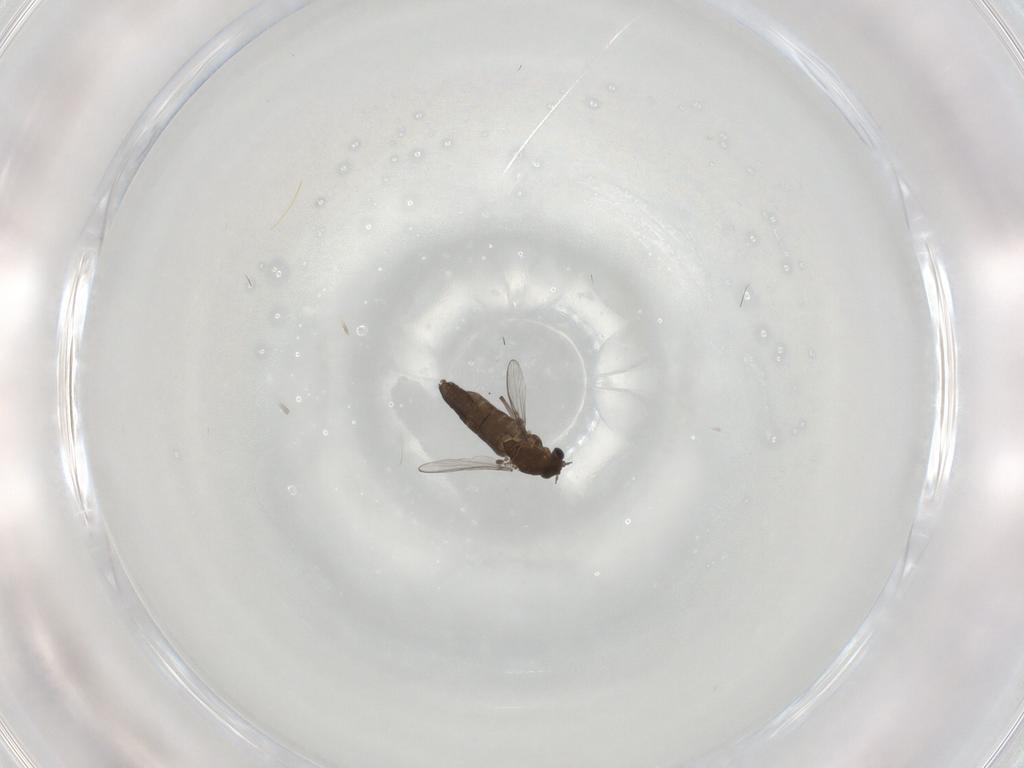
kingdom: Animalia
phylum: Arthropoda
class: Insecta
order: Diptera
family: Chironomidae
